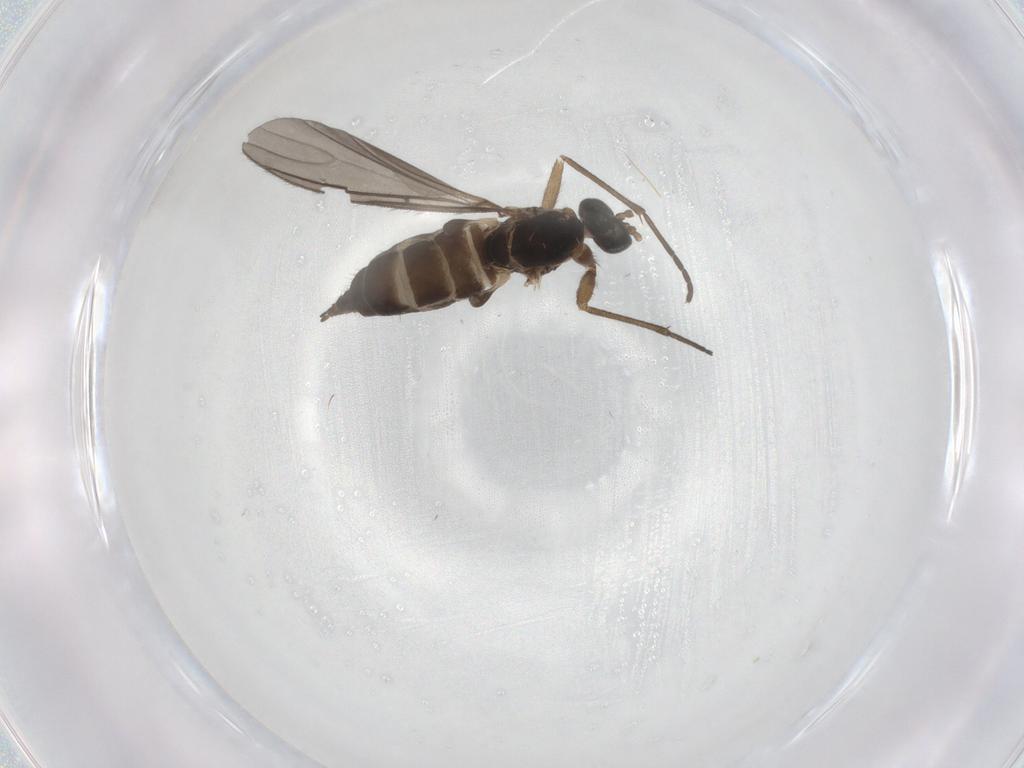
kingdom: Animalia
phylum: Arthropoda
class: Insecta
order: Diptera
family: Sciaridae
